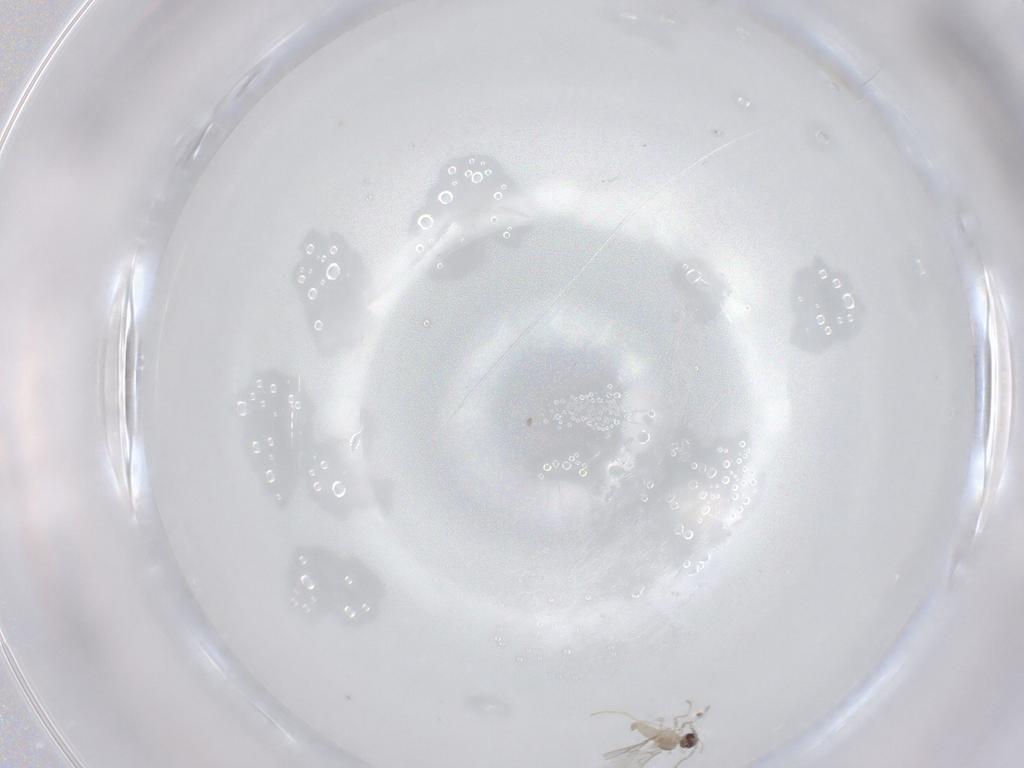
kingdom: Animalia
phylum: Arthropoda
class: Insecta
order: Diptera
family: Cecidomyiidae
